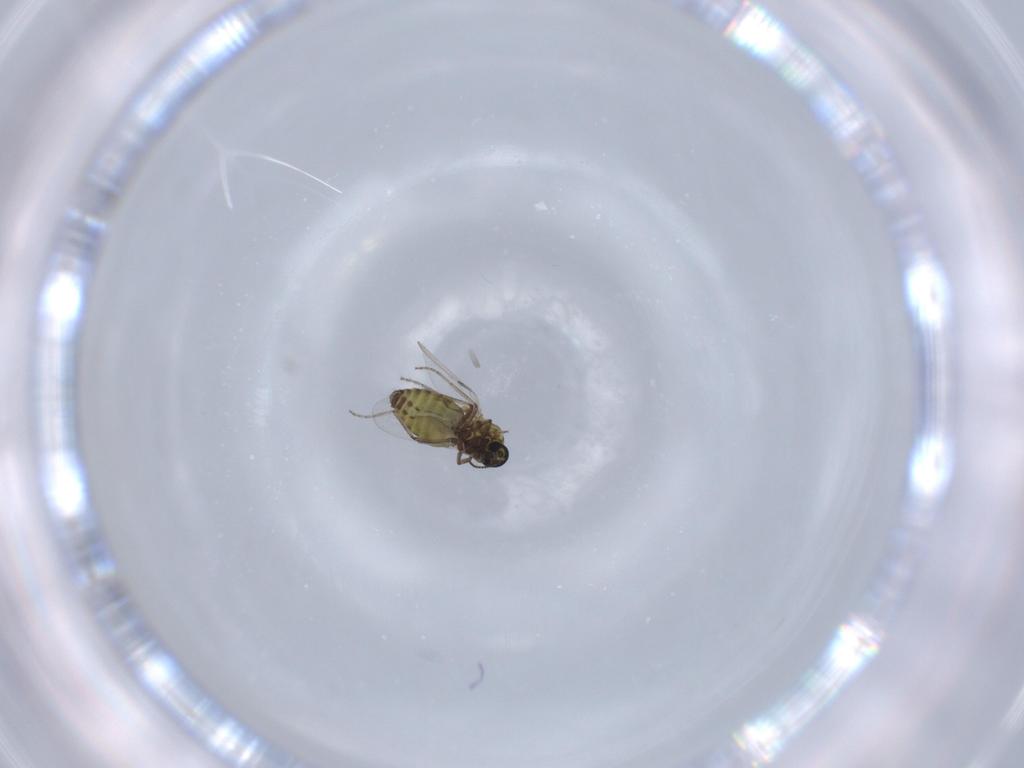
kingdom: Animalia
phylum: Arthropoda
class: Insecta
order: Diptera
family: Ceratopogonidae
